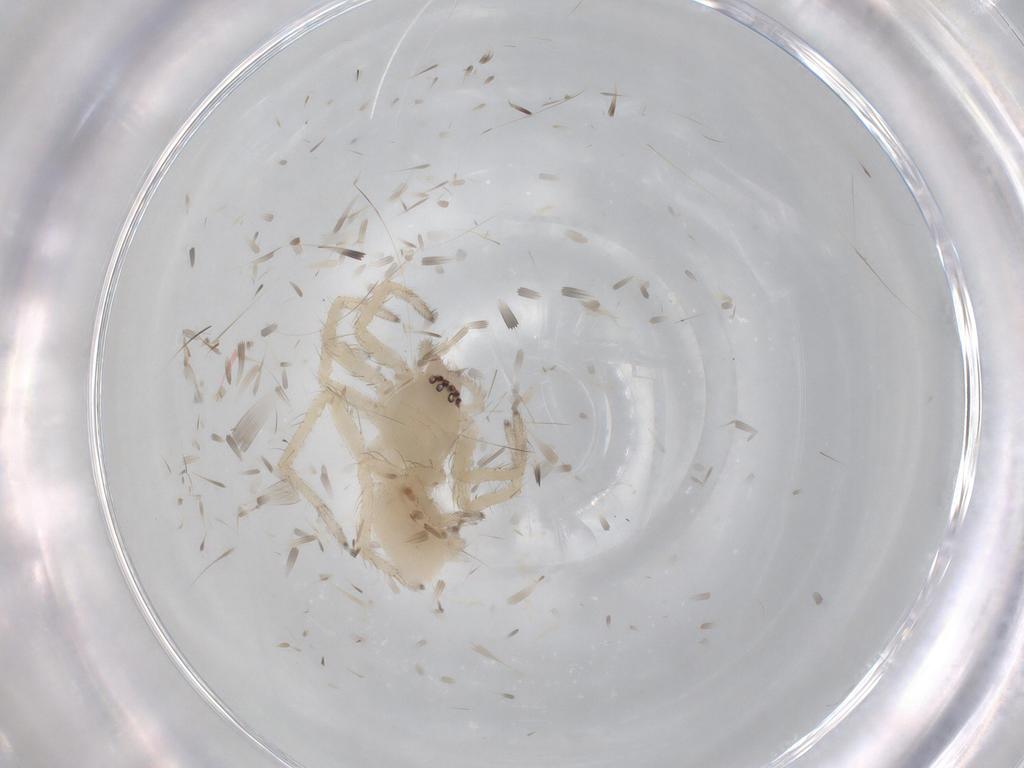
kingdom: Animalia
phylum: Arthropoda
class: Arachnida
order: Araneae
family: Clubionidae
